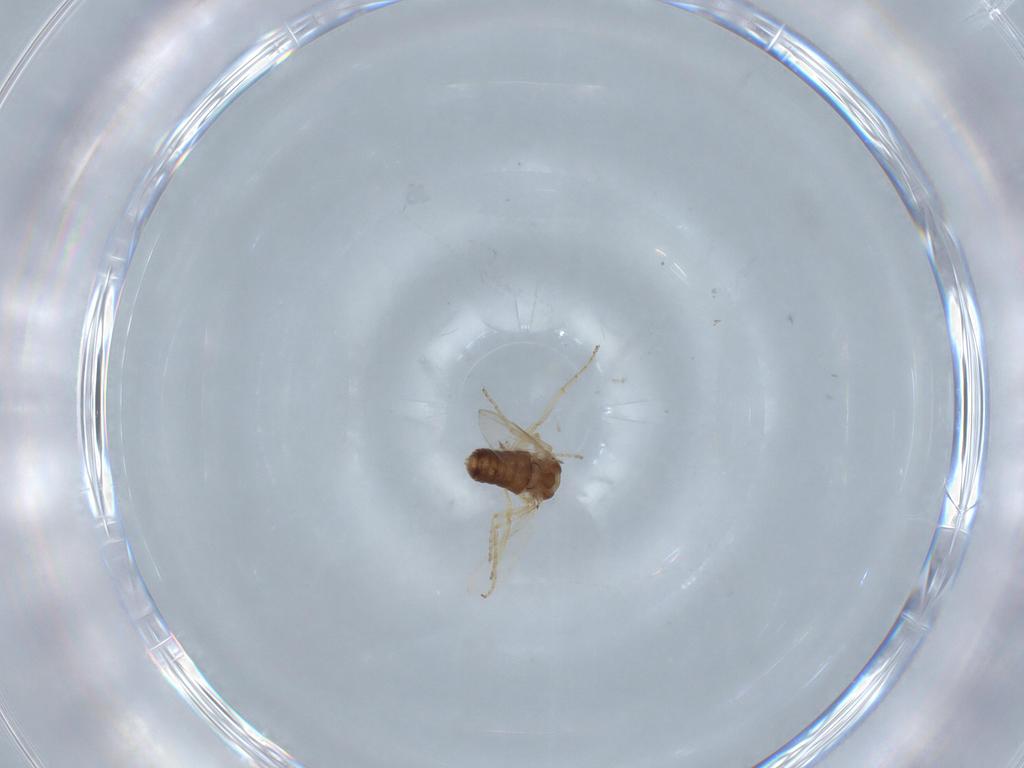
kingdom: Animalia
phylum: Arthropoda
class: Insecta
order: Diptera
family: Ceratopogonidae
